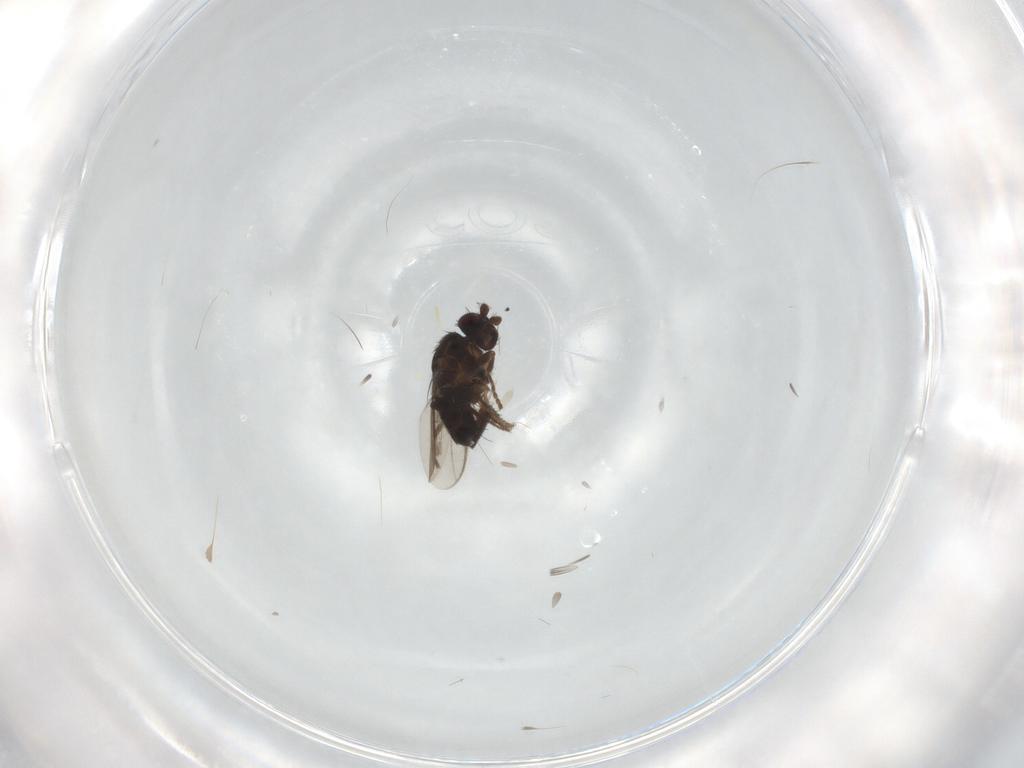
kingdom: Animalia
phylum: Arthropoda
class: Insecta
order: Diptera
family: Sphaeroceridae
